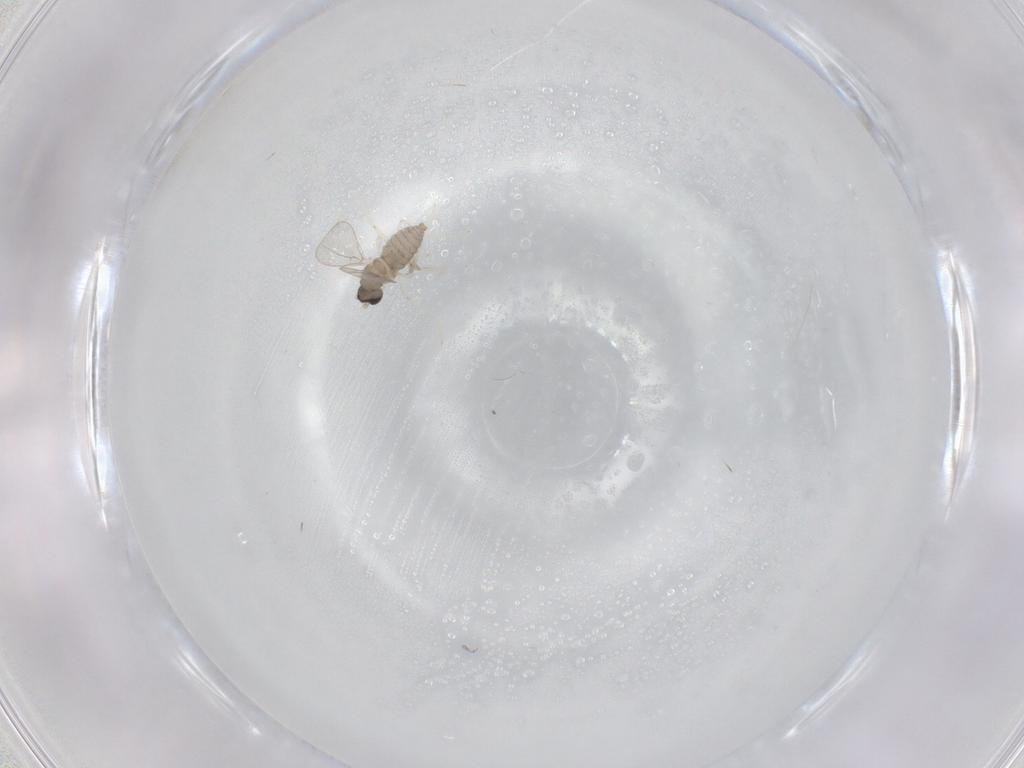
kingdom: Animalia
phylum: Arthropoda
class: Insecta
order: Diptera
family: Cecidomyiidae
